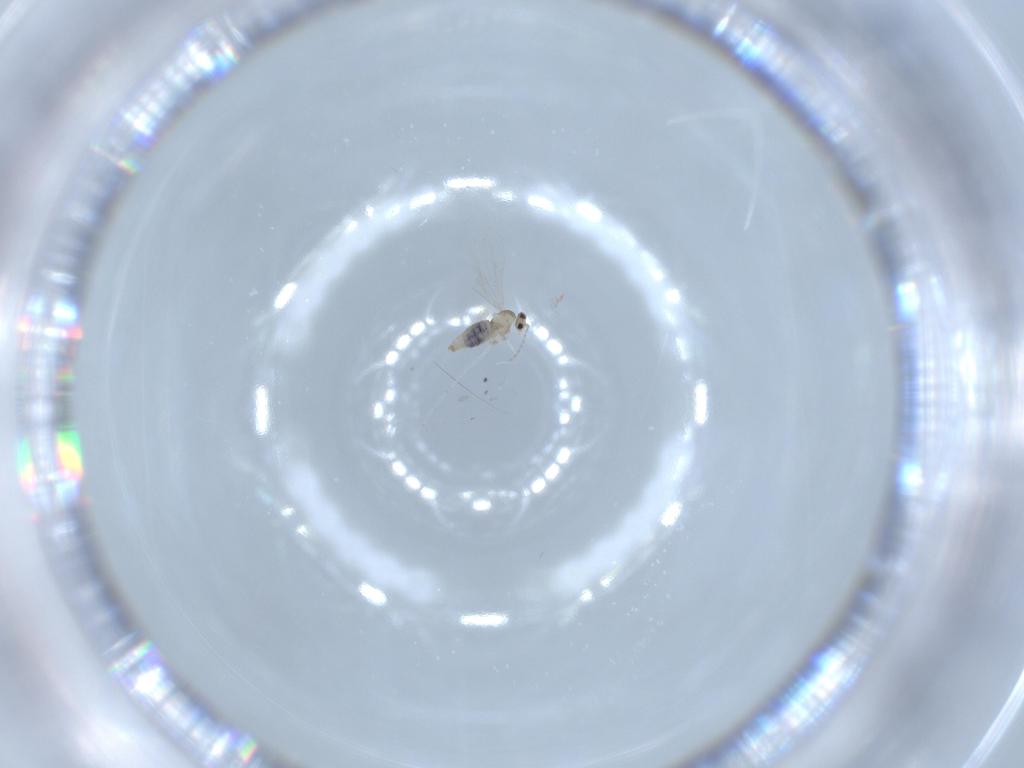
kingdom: Animalia
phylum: Arthropoda
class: Insecta
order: Diptera
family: Cecidomyiidae
